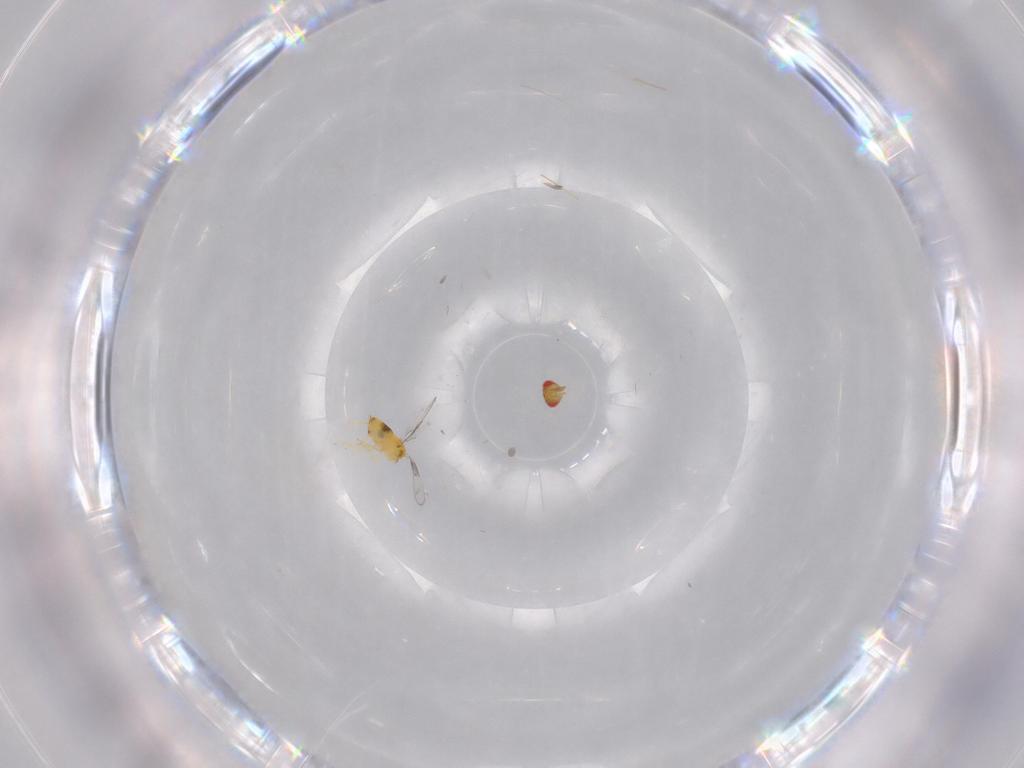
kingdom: Animalia
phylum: Arthropoda
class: Insecta
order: Hymenoptera
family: Trichogrammatidae
